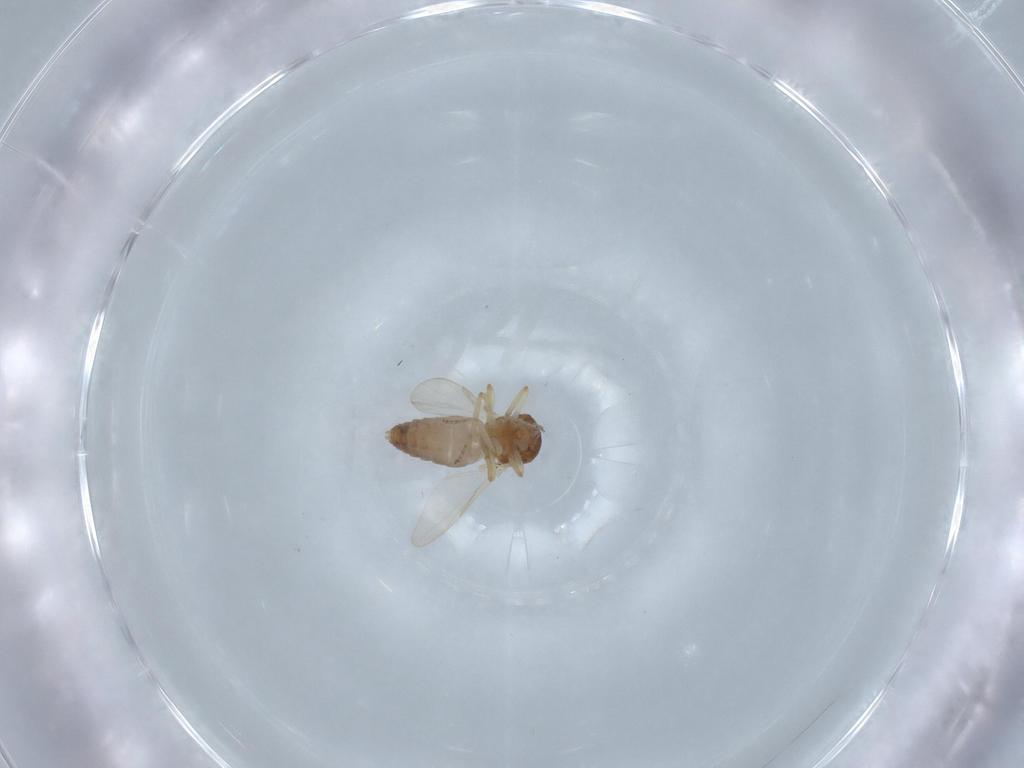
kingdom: Animalia
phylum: Arthropoda
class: Insecta
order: Diptera
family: Ceratopogonidae
